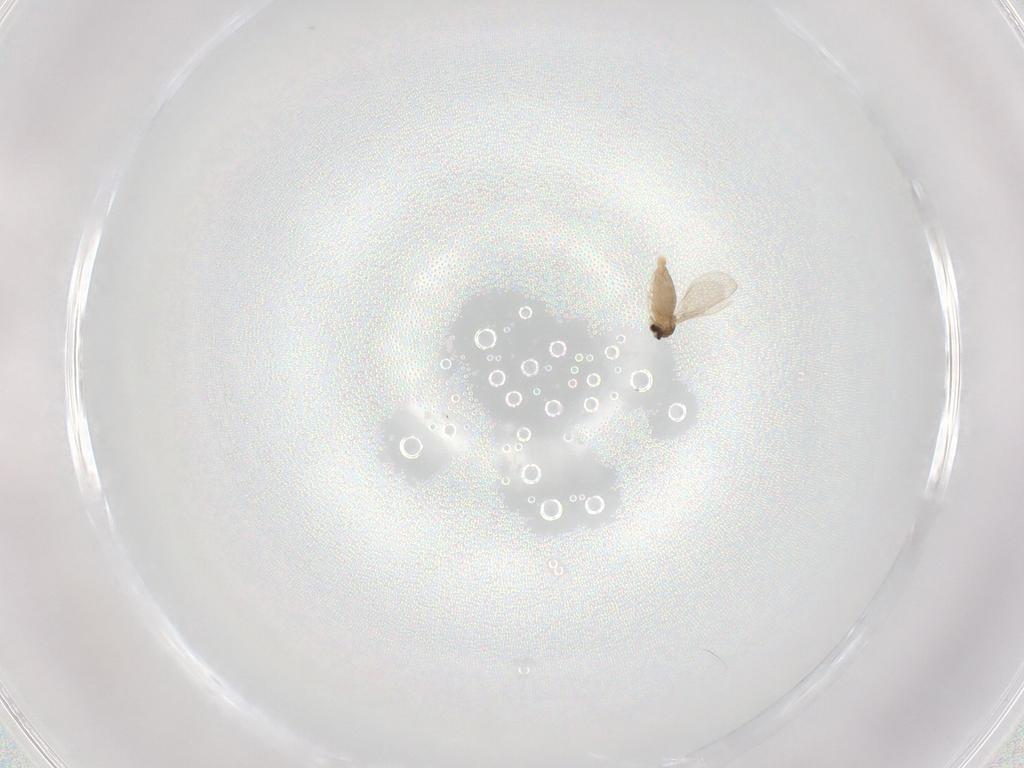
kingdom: Animalia
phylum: Arthropoda
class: Insecta
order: Diptera
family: Cecidomyiidae
